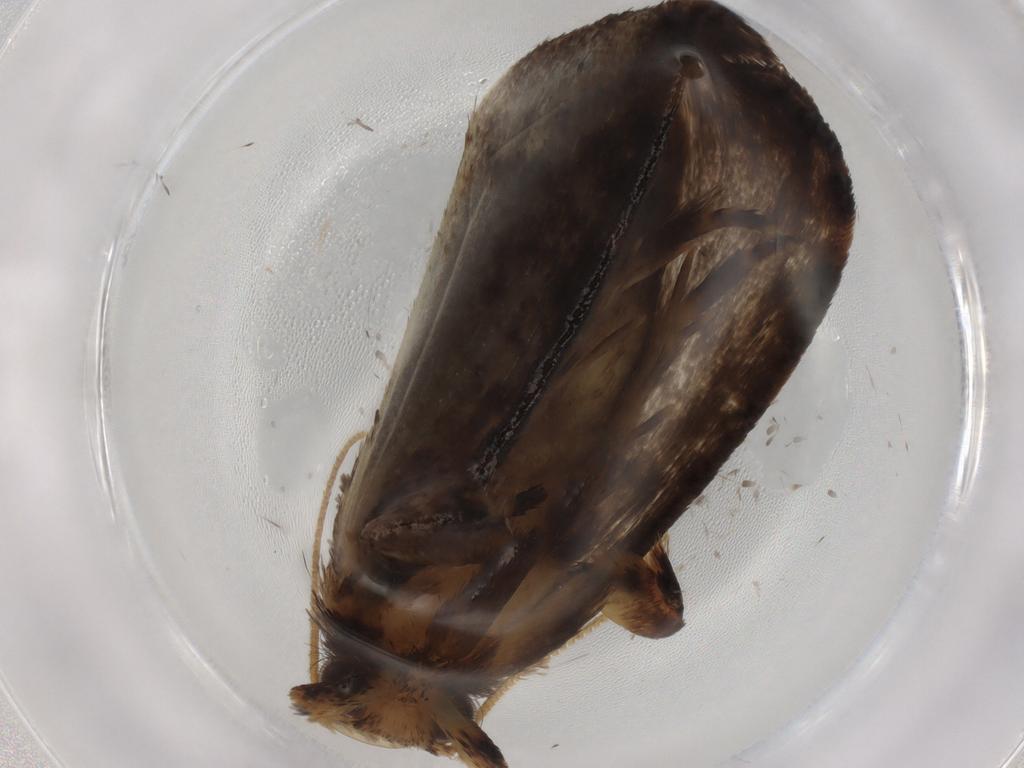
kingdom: Animalia
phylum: Arthropoda
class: Insecta
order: Lepidoptera
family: Tineidae
